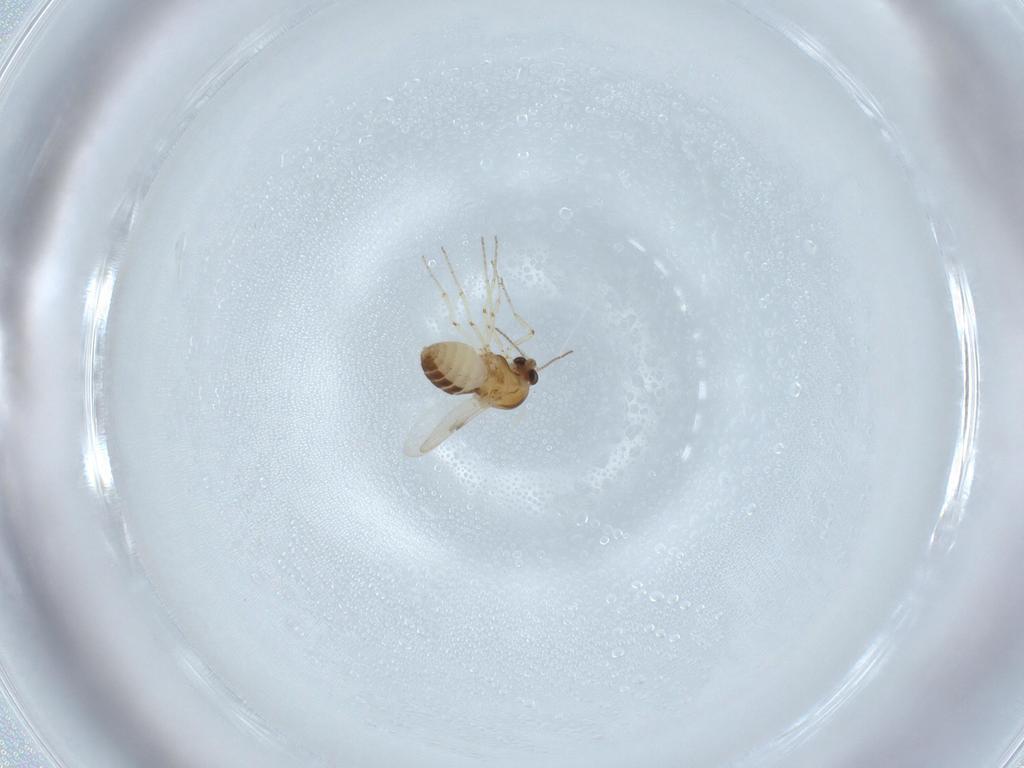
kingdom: Animalia
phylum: Arthropoda
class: Insecta
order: Diptera
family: Ceratopogonidae
